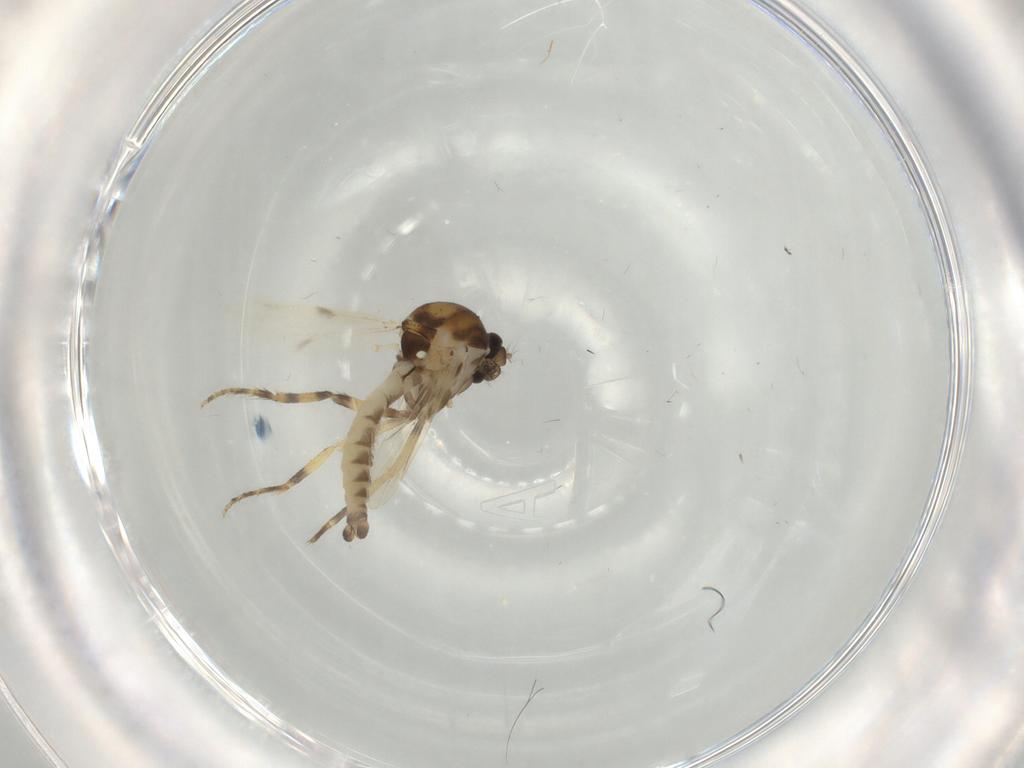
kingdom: Animalia
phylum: Arthropoda
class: Insecta
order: Diptera
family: Ceratopogonidae
